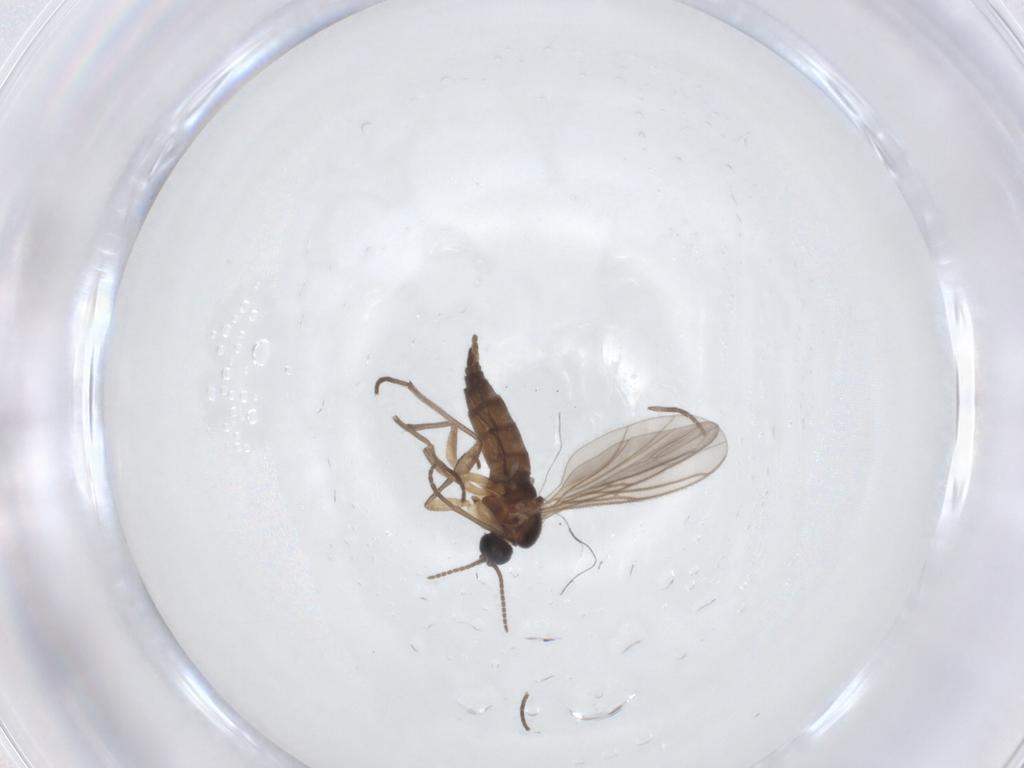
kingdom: Animalia
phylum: Arthropoda
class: Insecta
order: Diptera
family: Sciaridae
